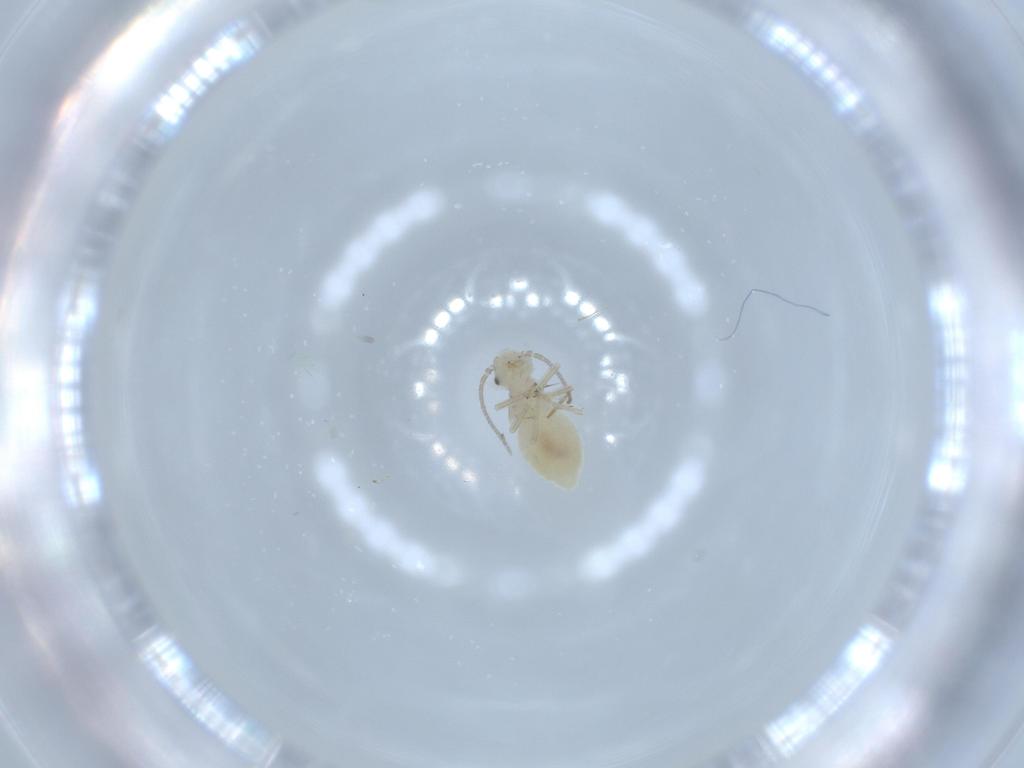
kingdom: Animalia
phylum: Arthropoda
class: Insecta
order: Psocodea
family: Caeciliusidae
